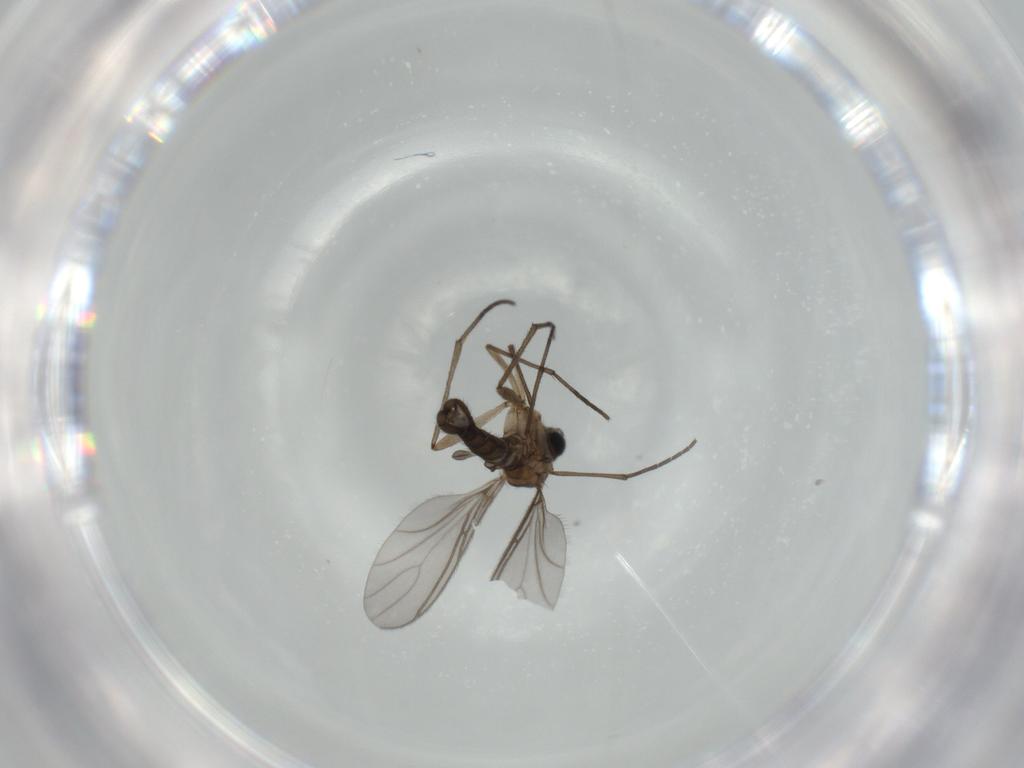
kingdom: Animalia
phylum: Arthropoda
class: Insecta
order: Diptera
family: Sciaridae
